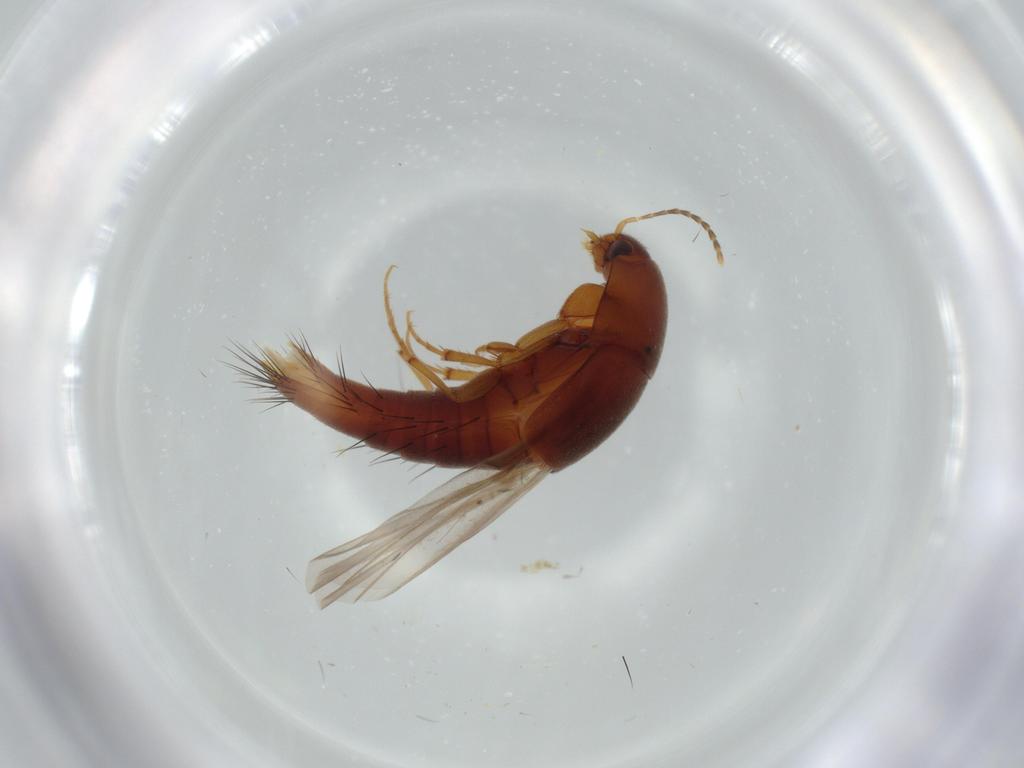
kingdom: Animalia
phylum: Arthropoda
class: Insecta
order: Coleoptera
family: Staphylinidae
